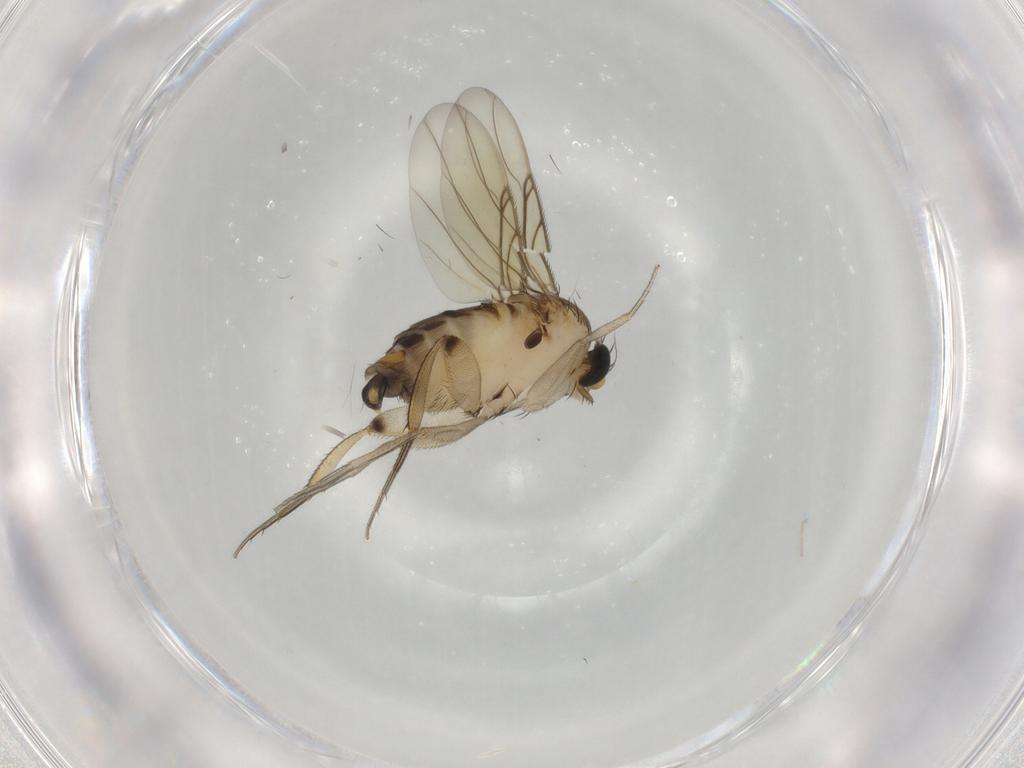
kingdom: Animalia
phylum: Arthropoda
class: Insecta
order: Diptera
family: Phoridae
